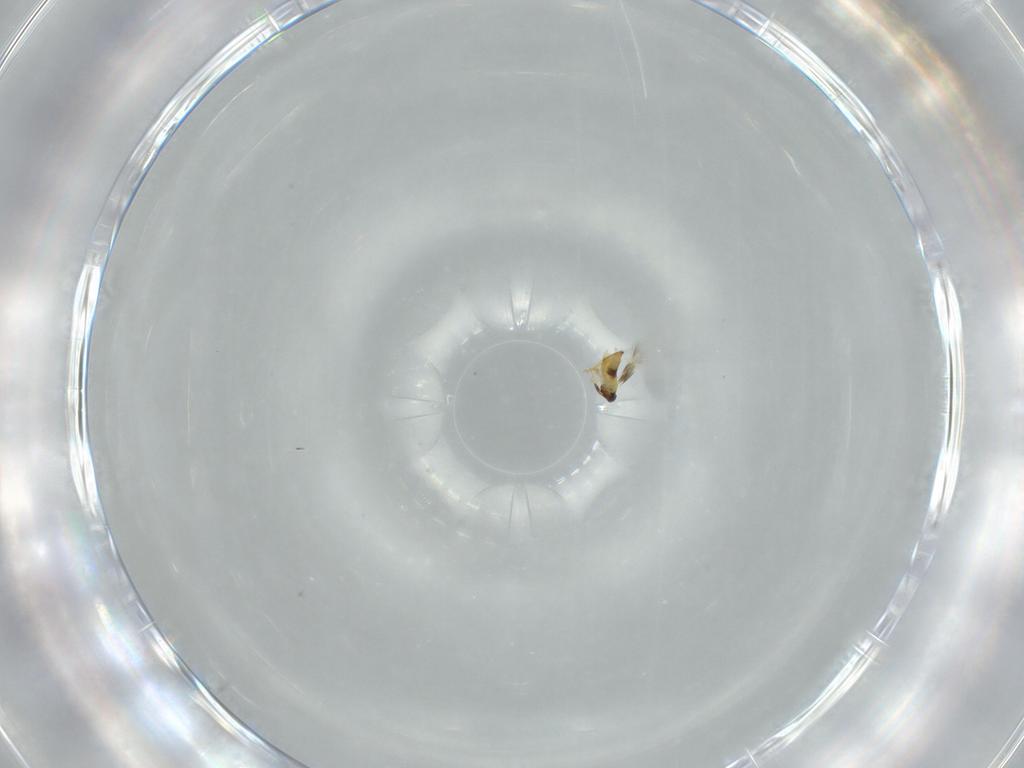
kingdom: Animalia
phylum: Arthropoda
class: Insecta
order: Hymenoptera
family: Signiphoridae
